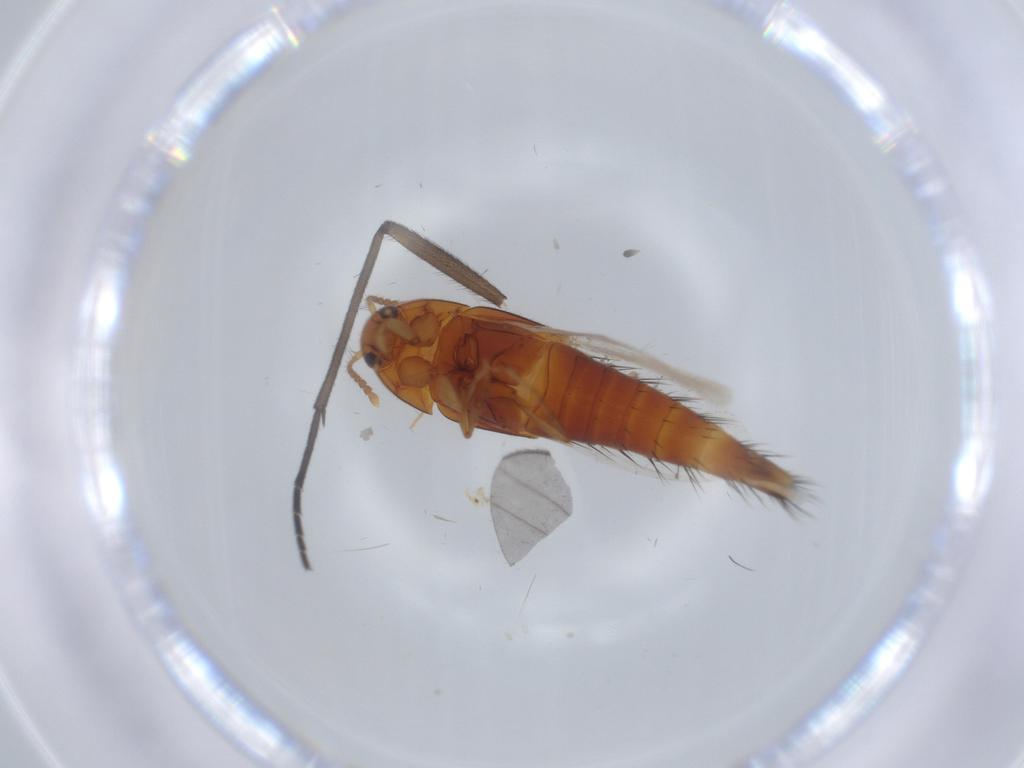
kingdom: Animalia
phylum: Arthropoda
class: Insecta
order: Coleoptera
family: Staphylinidae
